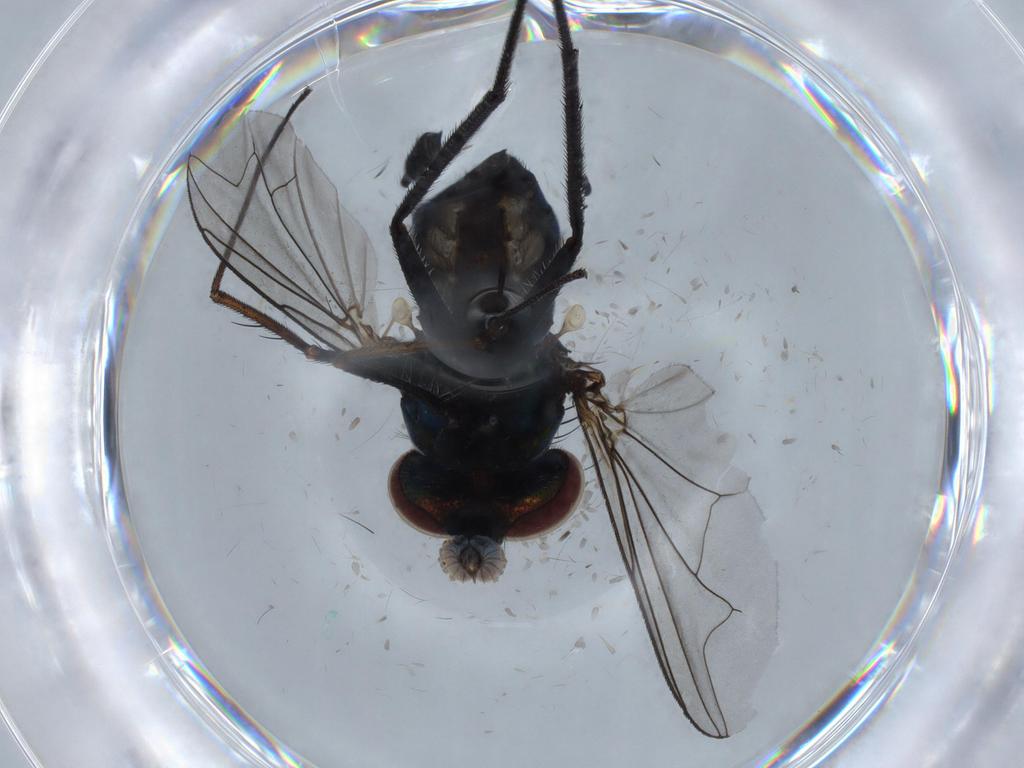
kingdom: Animalia
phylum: Arthropoda
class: Insecta
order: Diptera
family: Dolichopodidae
